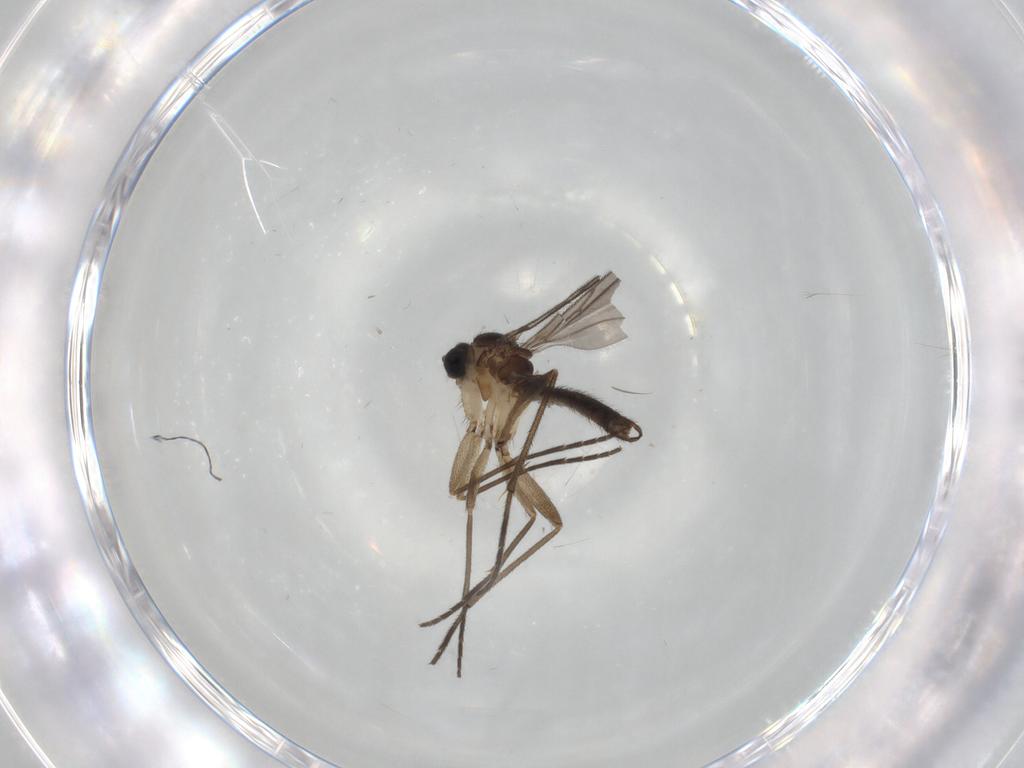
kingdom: Animalia
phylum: Arthropoda
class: Insecta
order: Diptera
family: Sciaridae
